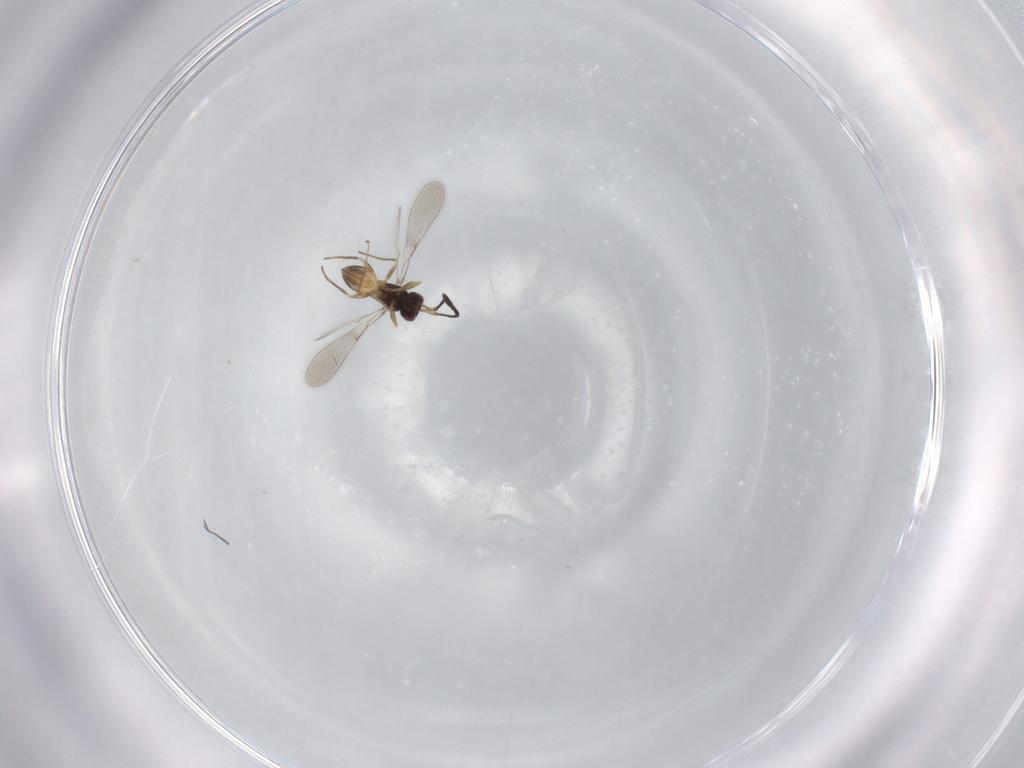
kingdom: Animalia
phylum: Arthropoda
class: Insecta
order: Hymenoptera
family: Mymaridae
